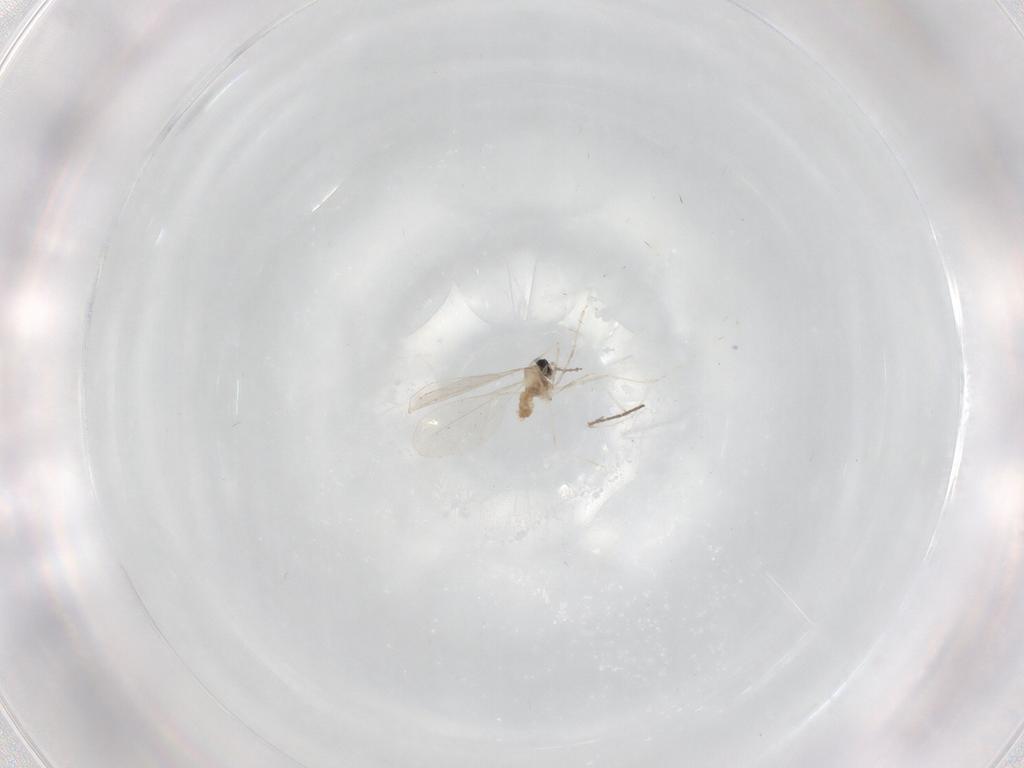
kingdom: Animalia
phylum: Arthropoda
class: Insecta
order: Diptera
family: Cecidomyiidae
